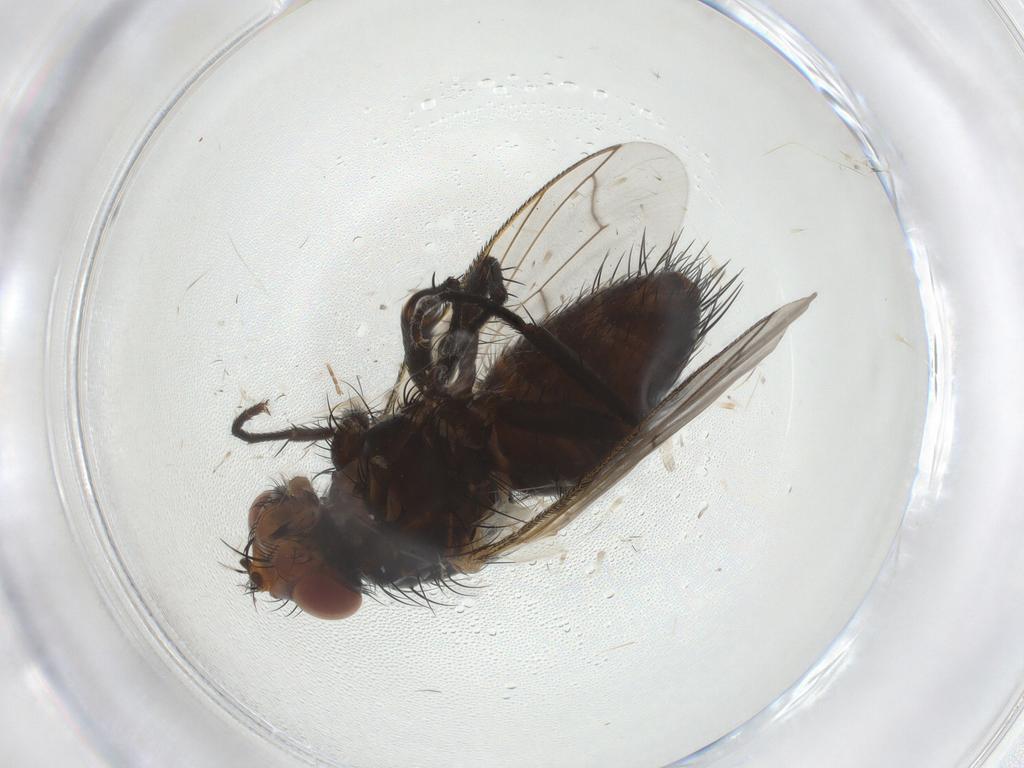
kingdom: Animalia
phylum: Arthropoda
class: Insecta
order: Diptera
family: Tachinidae
